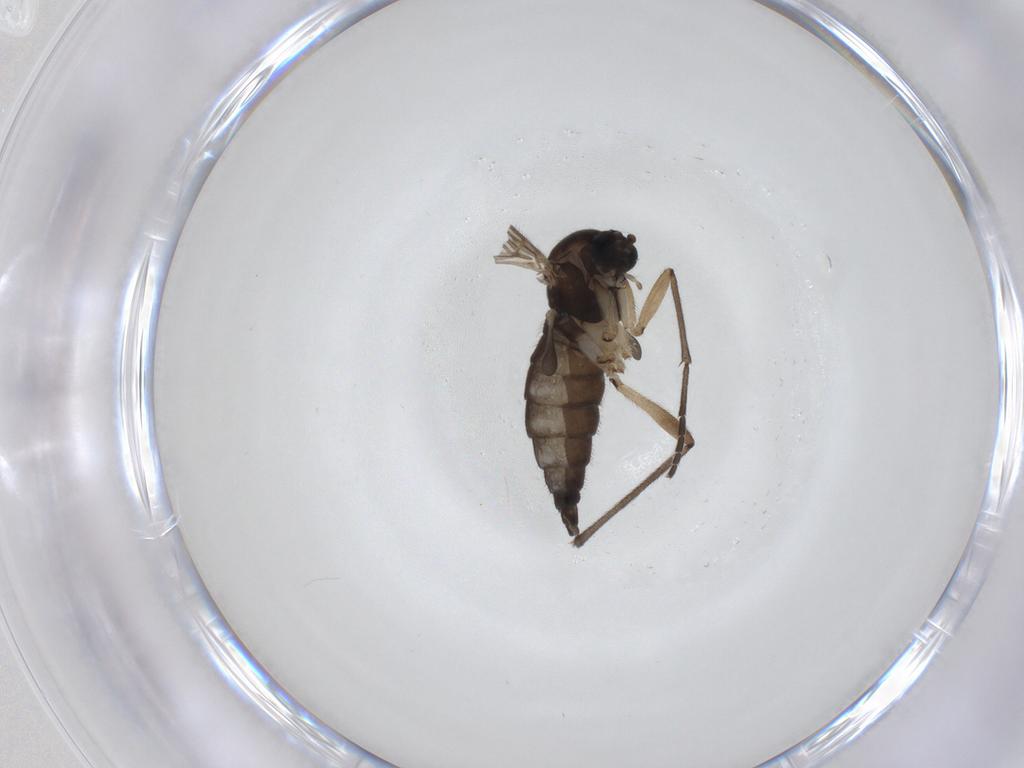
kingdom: Animalia
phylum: Arthropoda
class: Insecta
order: Diptera
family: Sciaridae
